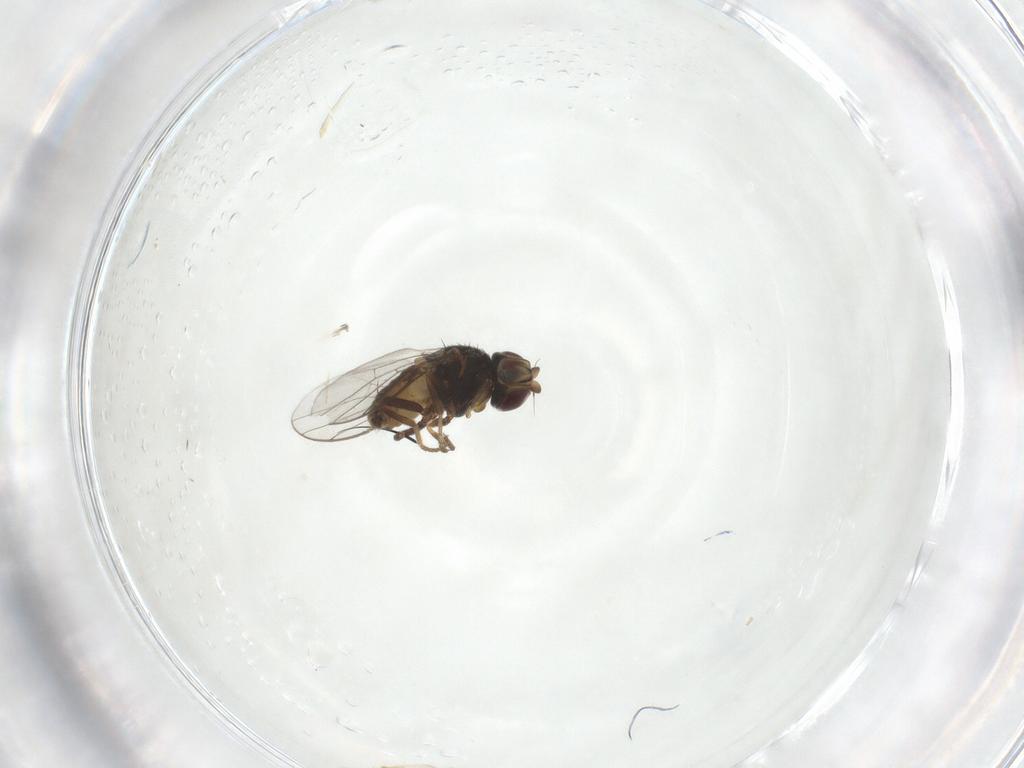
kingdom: Animalia
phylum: Arthropoda
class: Insecta
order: Diptera
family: Chloropidae
